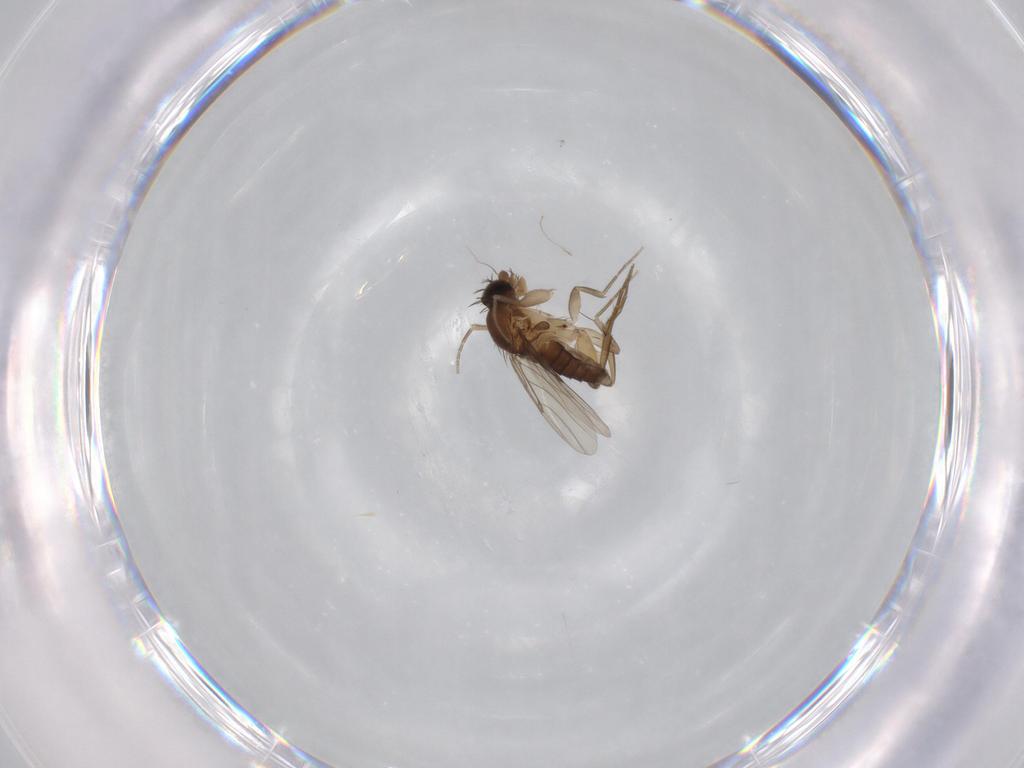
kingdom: Animalia
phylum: Arthropoda
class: Insecta
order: Diptera
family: Phoridae
